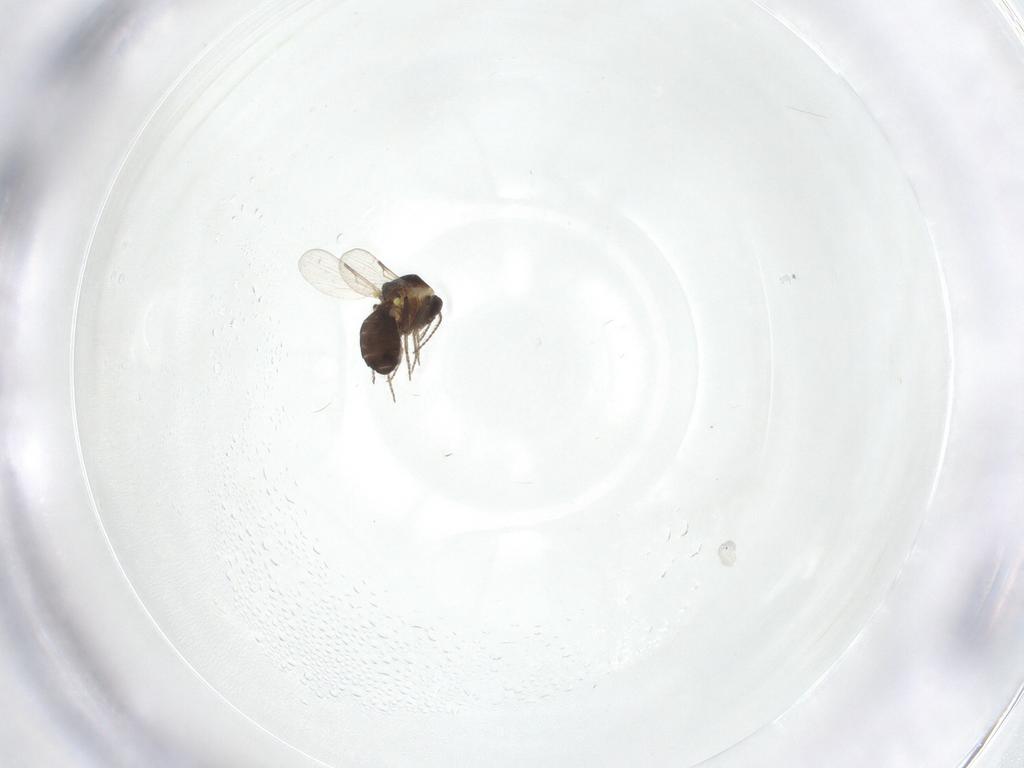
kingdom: Animalia
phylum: Arthropoda
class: Insecta
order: Diptera
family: Ceratopogonidae
